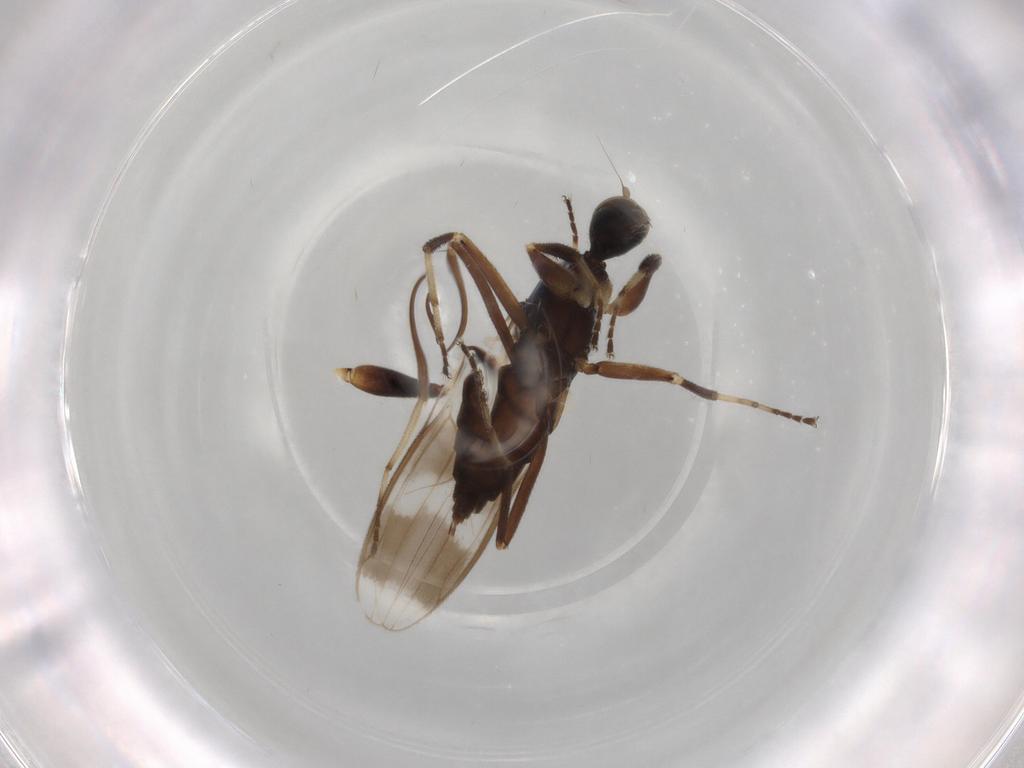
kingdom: Animalia
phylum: Arthropoda
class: Insecta
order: Diptera
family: Hybotidae
